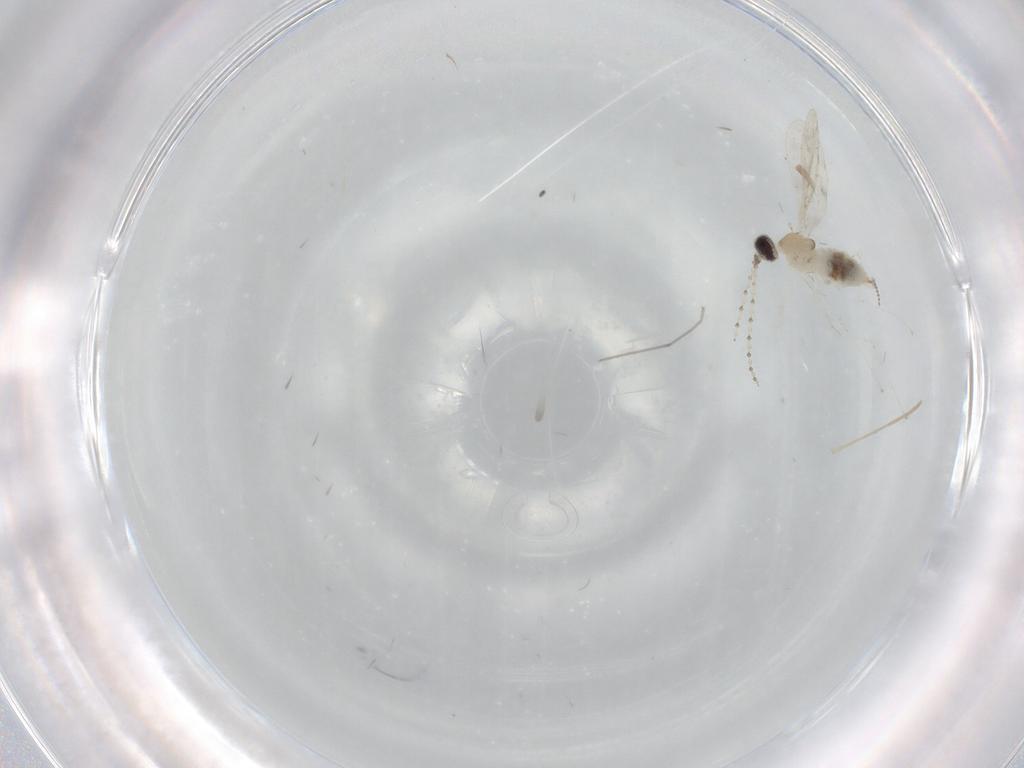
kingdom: Animalia
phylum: Arthropoda
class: Insecta
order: Diptera
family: Cecidomyiidae
